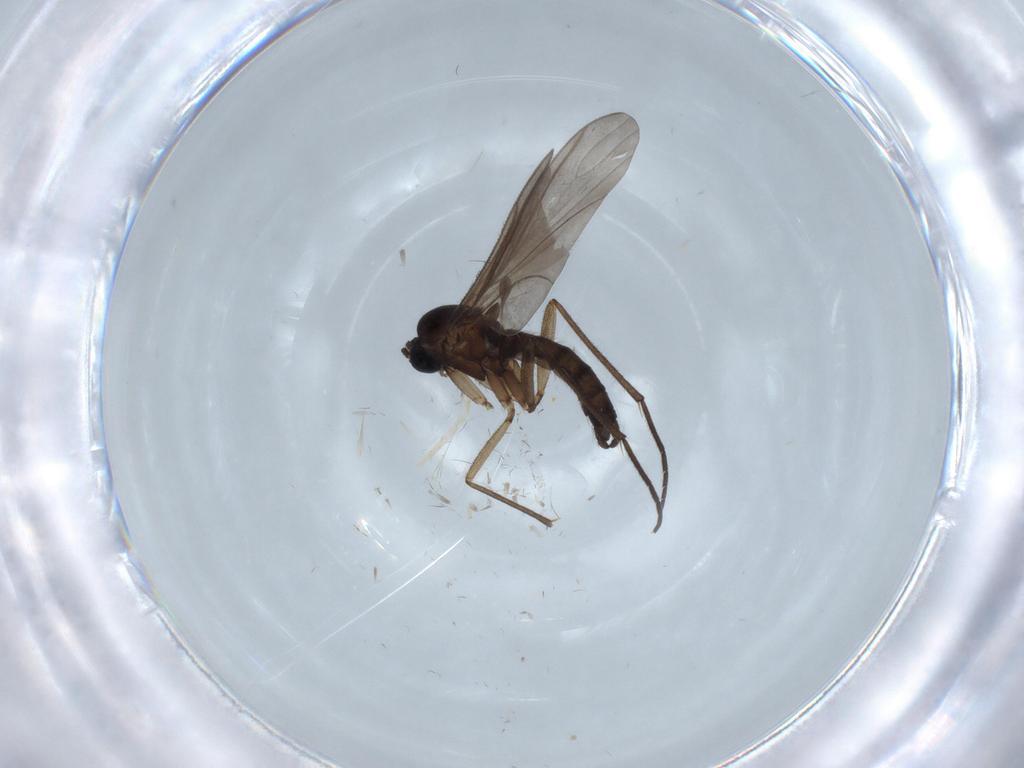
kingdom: Animalia
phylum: Arthropoda
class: Insecta
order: Diptera
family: Sciaridae
